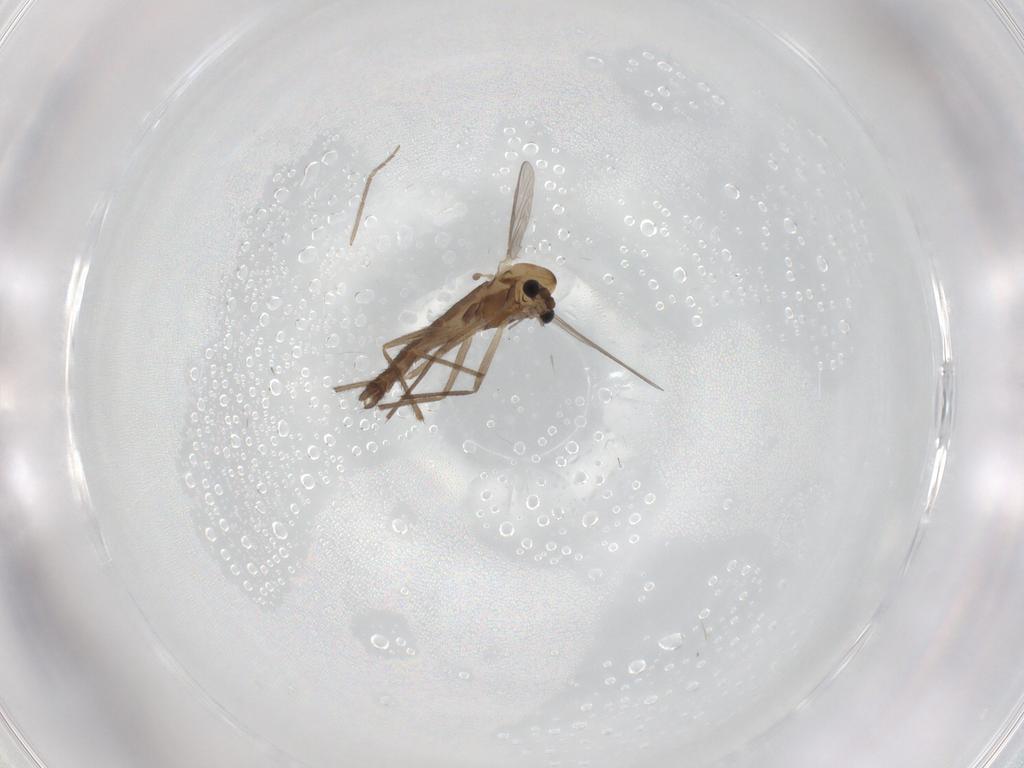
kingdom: Animalia
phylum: Arthropoda
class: Insecta
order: Diptera
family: Chironomidae
